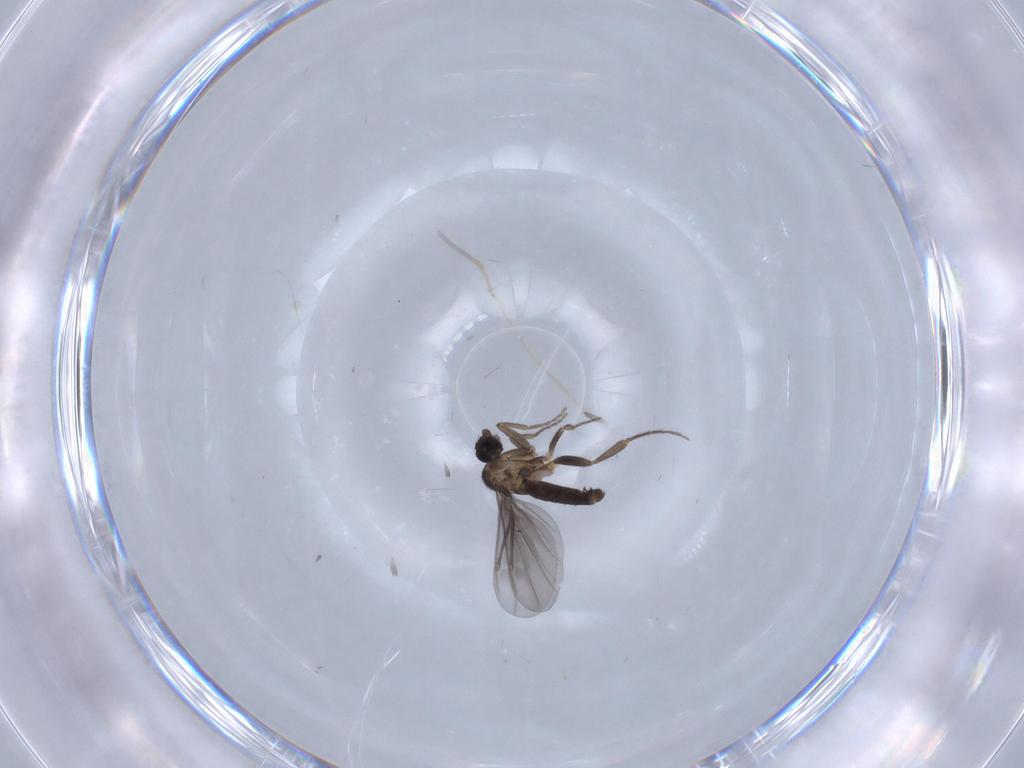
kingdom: Animalia
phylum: Arthropoda
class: Insecta
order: Diptera
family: Phoridae
